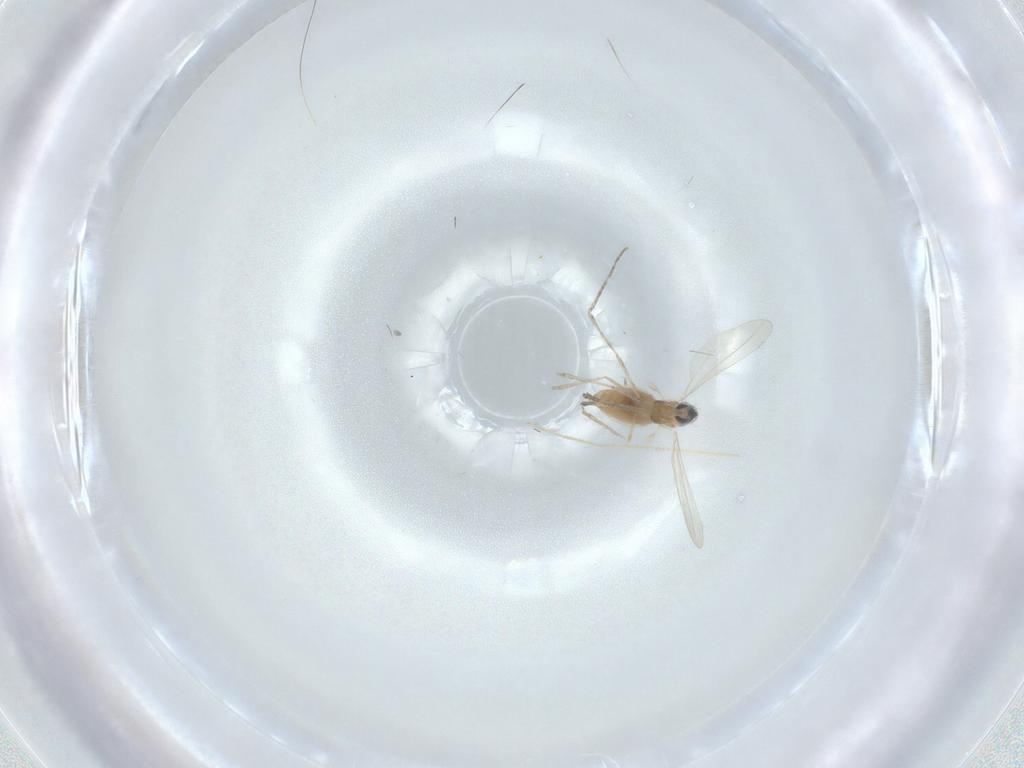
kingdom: Animalia
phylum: Arthropoda
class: Insecta
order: Diptera
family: Cecidomyiidae
